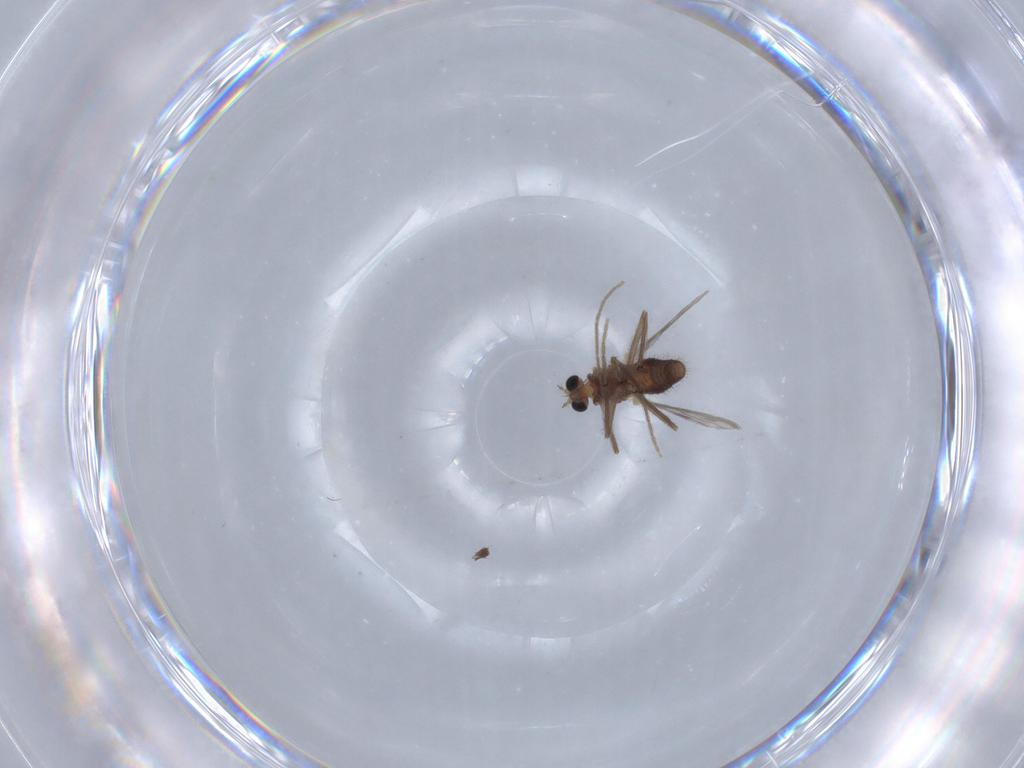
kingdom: Animalia
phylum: Arthropoda
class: Insecta
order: Diptera
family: Chironomidae
